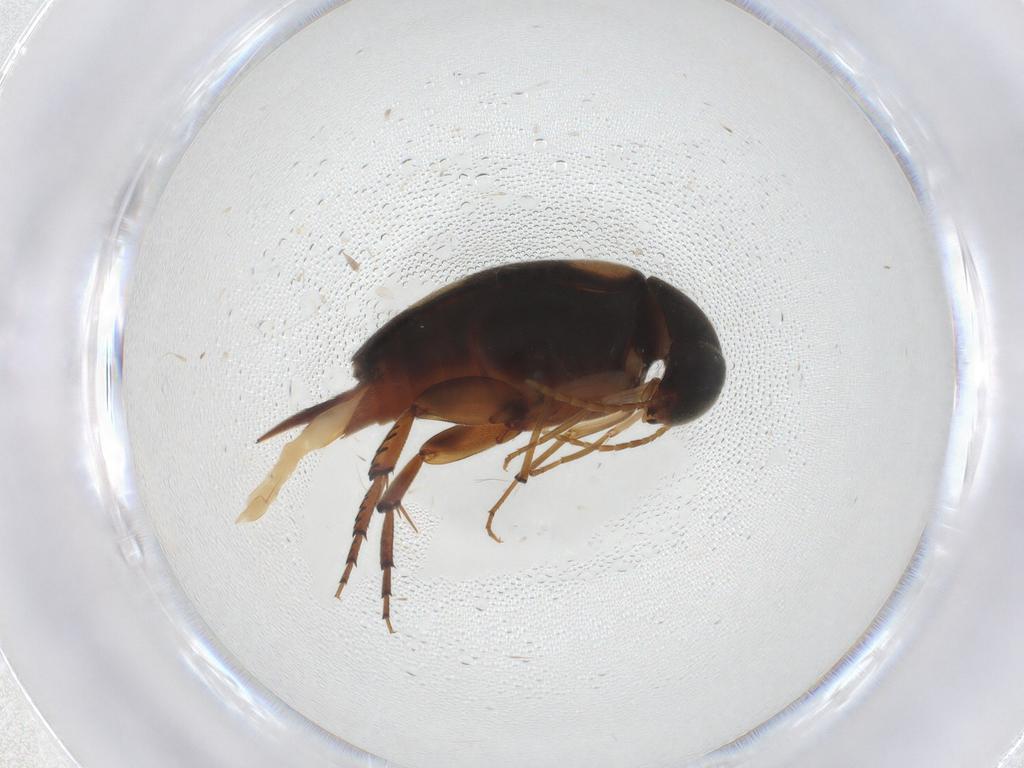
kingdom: Animalia
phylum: Arthropoda
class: Insecta
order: Coleoptera
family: Mordellidae
